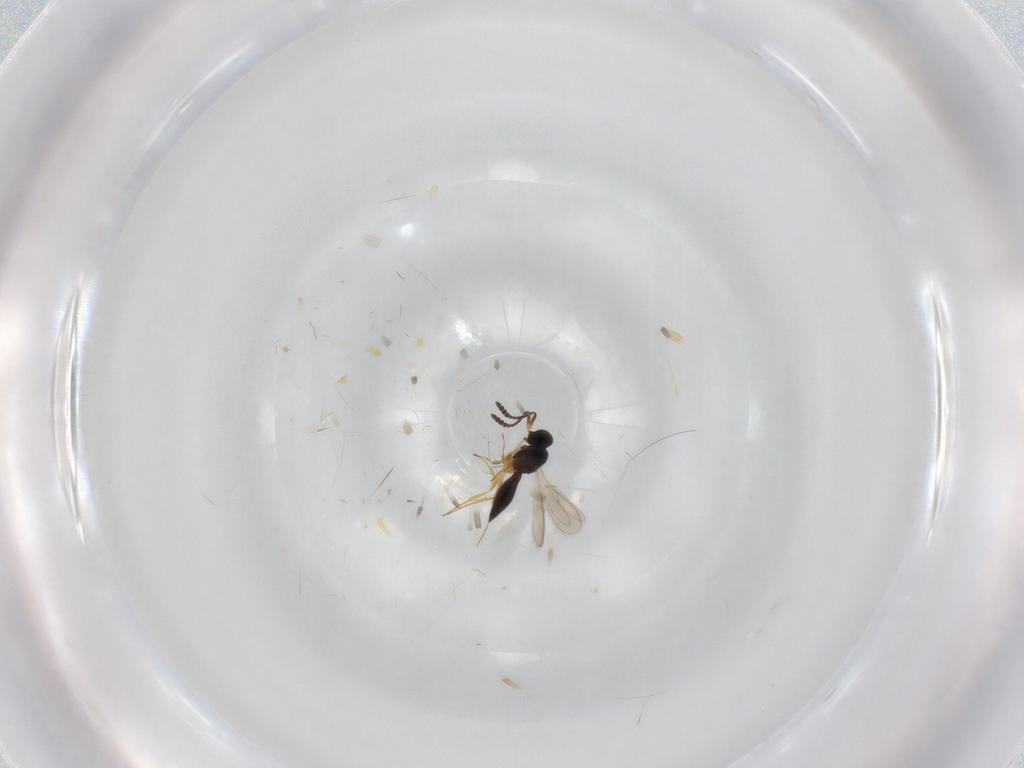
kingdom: Animalia
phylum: Arthropoda
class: Insecta
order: Hymenoptera
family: Scelionidae
